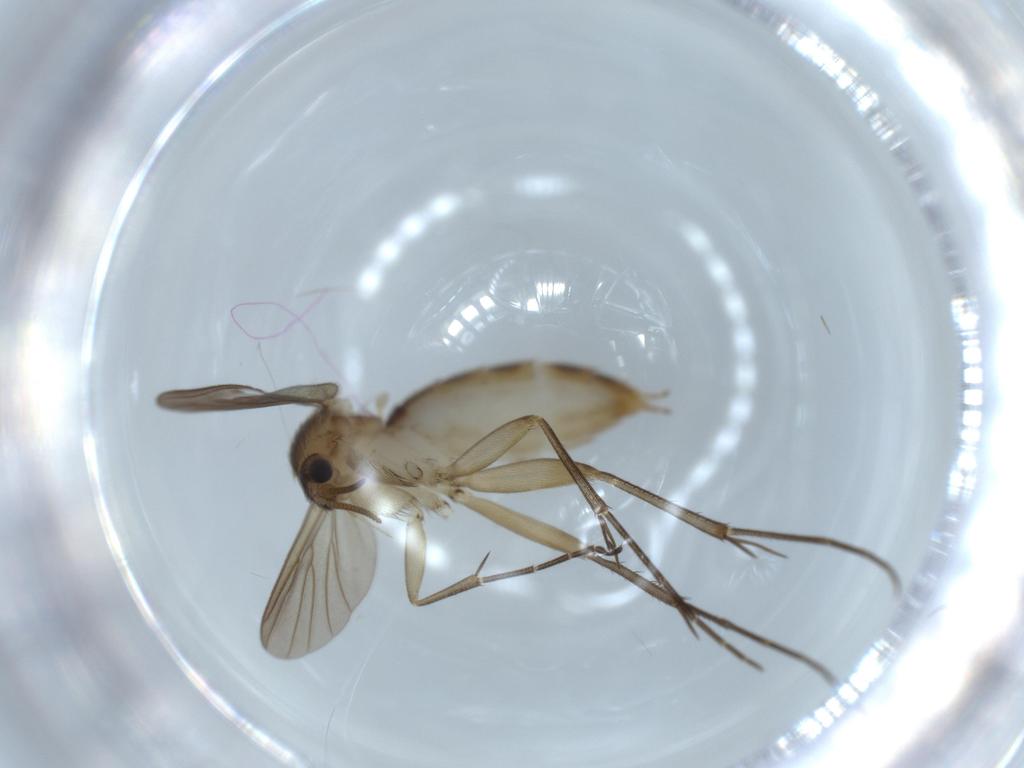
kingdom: Animalia
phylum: Arthropoda
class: Insecta
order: Diptera
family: Mycetophilidae
